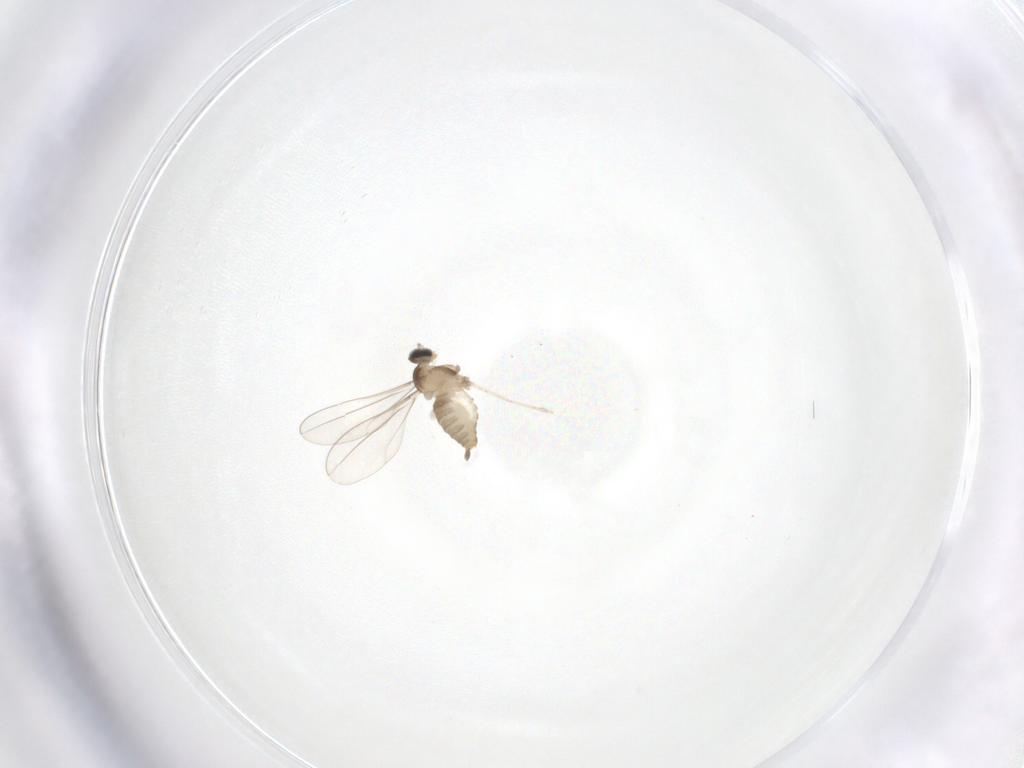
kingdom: Animalia
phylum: Arthropoda
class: Insecta
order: Diptera
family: Cecidomyiidae
